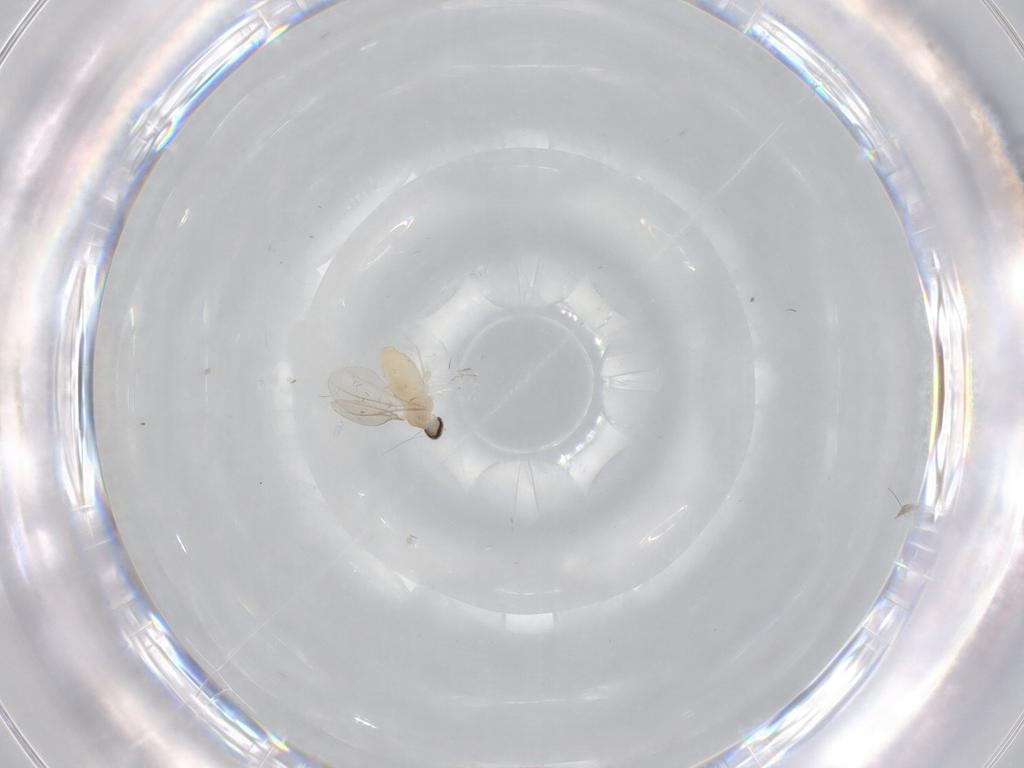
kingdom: Animalia
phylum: Arthropoda
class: Insecta
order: Diptera
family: Cecidomyiidae
